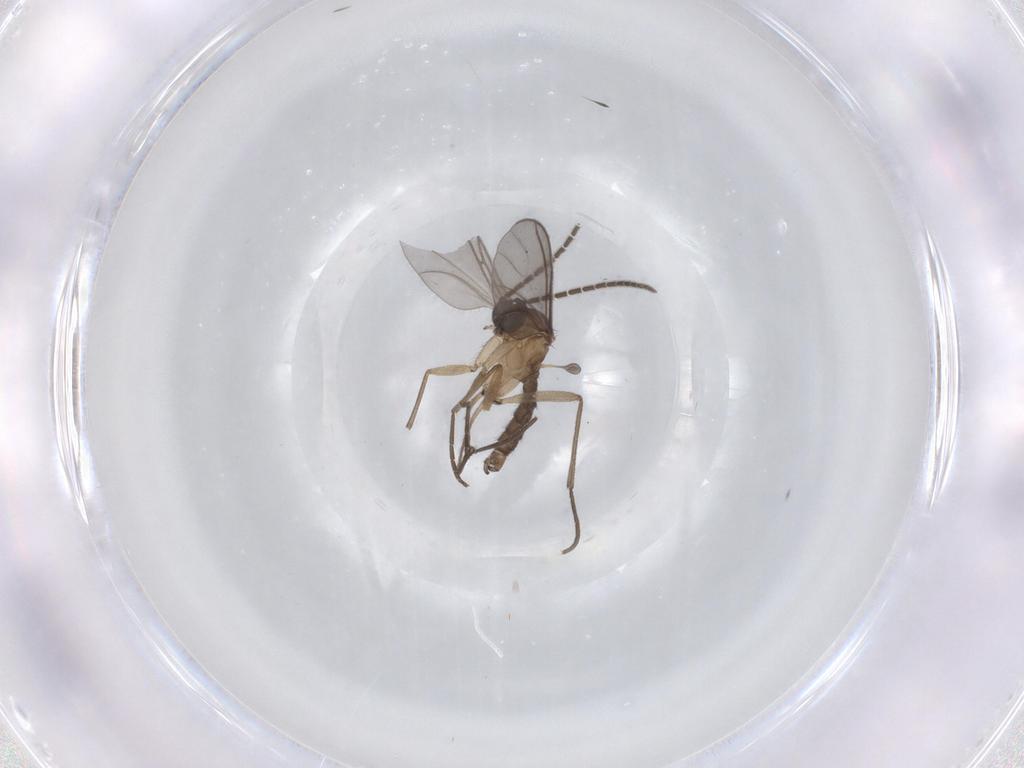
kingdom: Animalia
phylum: Arthropoda
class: Insecta
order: Diptera
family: Sciaridae
